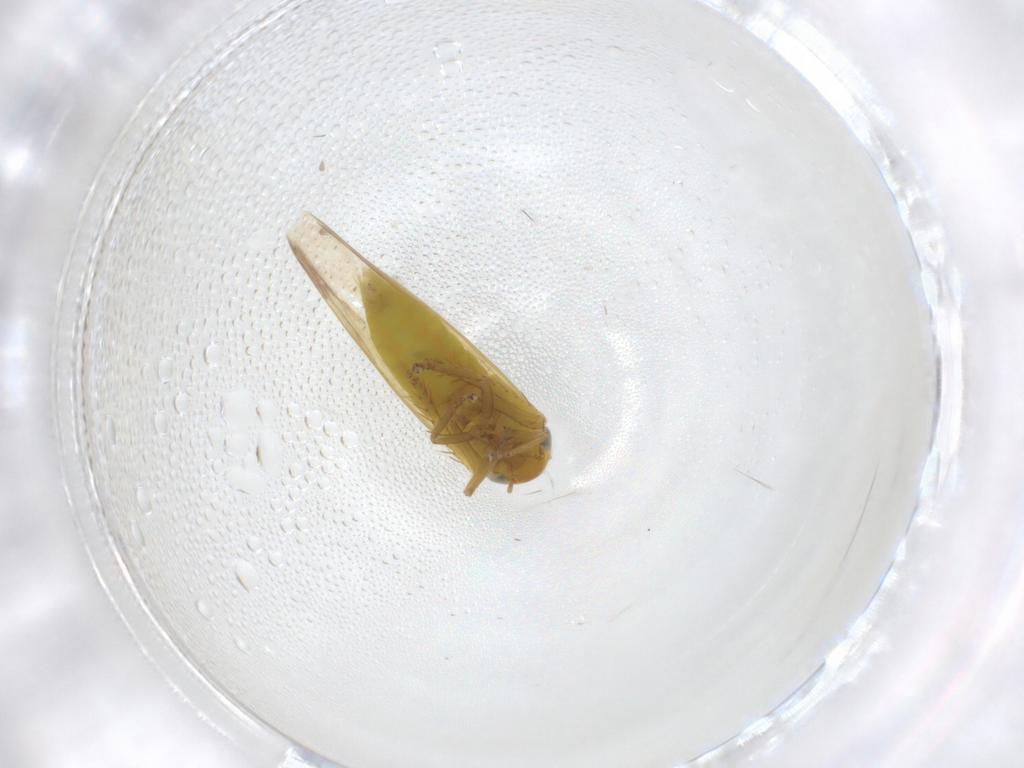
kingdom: Animalia
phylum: Arthropoda
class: Insecta
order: Hemiptera
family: Cicadellidae
